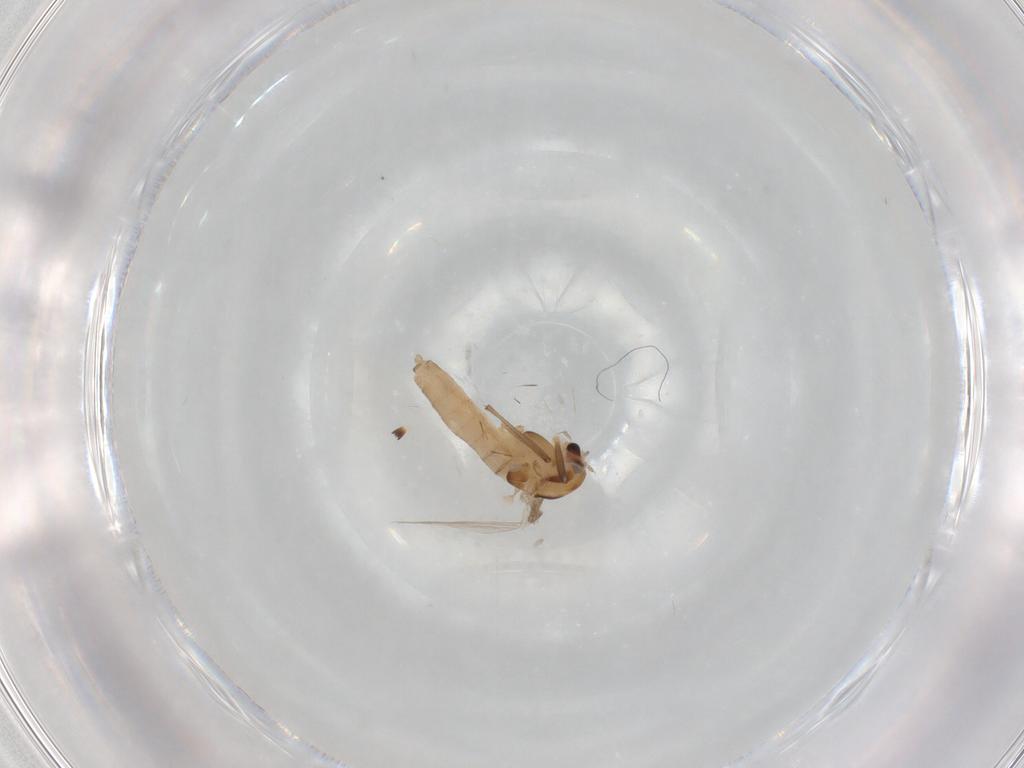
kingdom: Animalia
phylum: Arthropoda
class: Insecta
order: Diptera
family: Chironomidae
